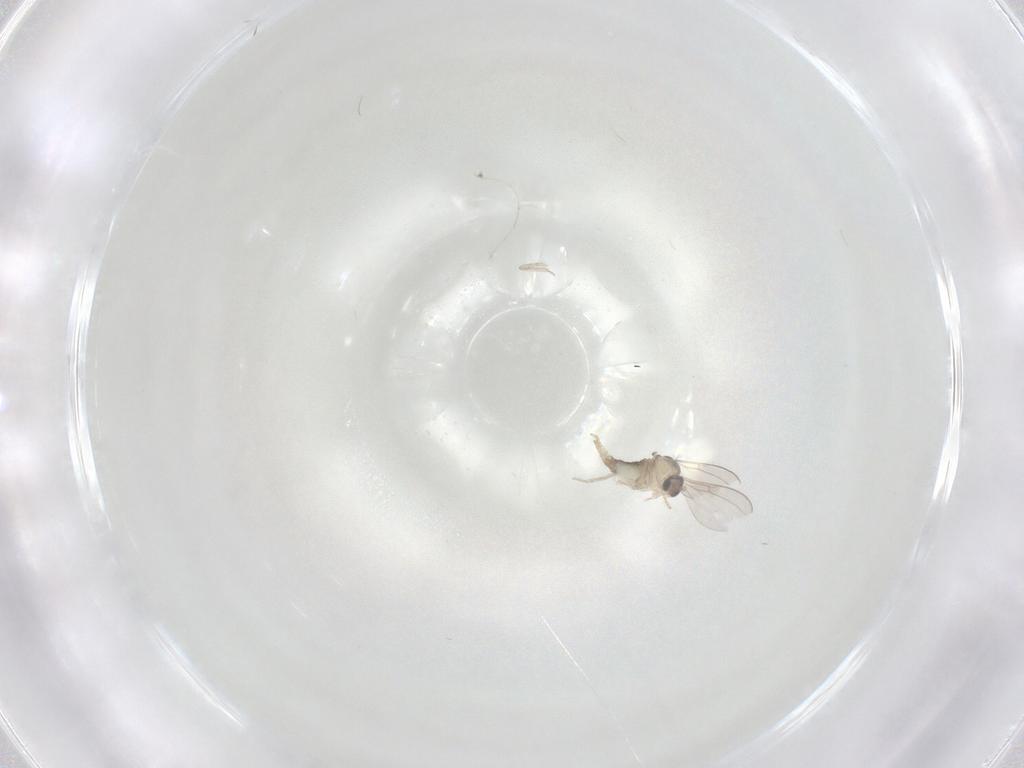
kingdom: Animalia
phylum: Arthropoda
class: Insecta
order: Diptera
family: Cecidomyiidae
